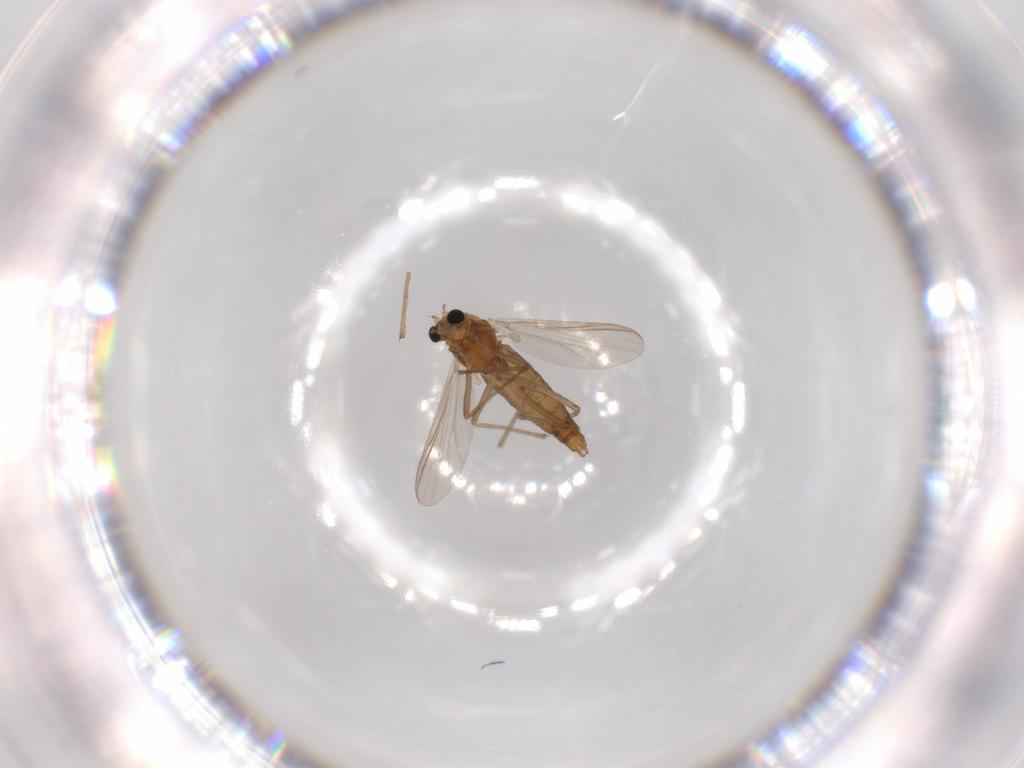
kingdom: Animalia
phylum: Arthropoda
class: Insecta
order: Diptera
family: Chironomidae
